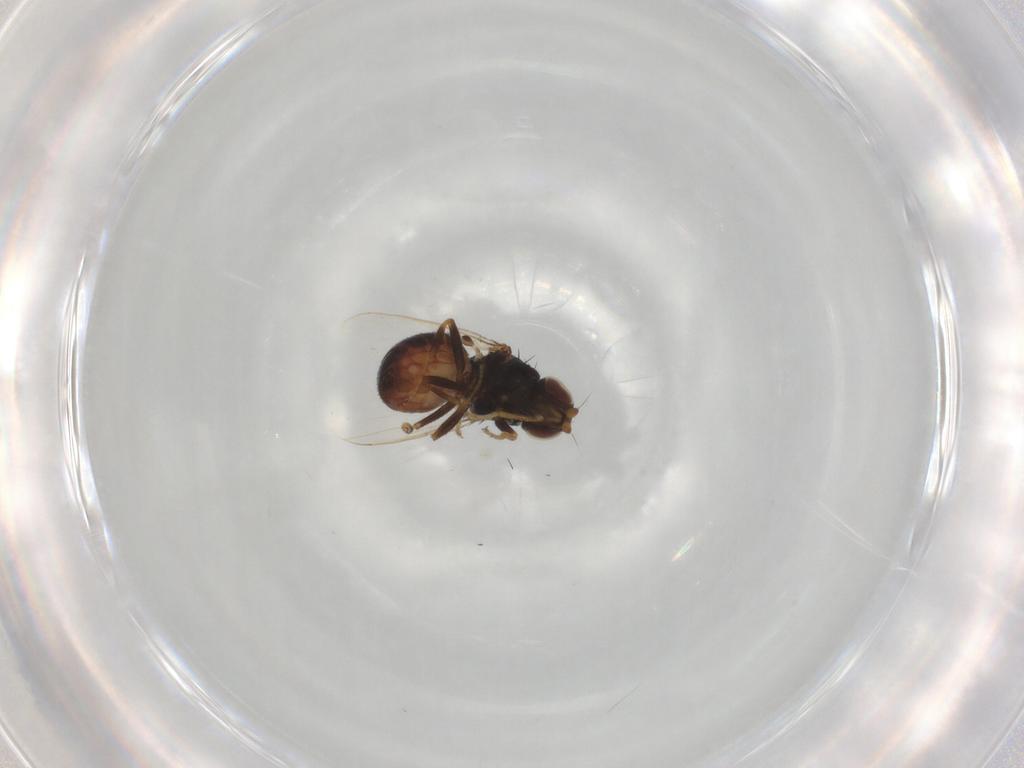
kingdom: Animalia
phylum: Arthropoda
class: Insecta
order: Diptera
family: Chloropidae
